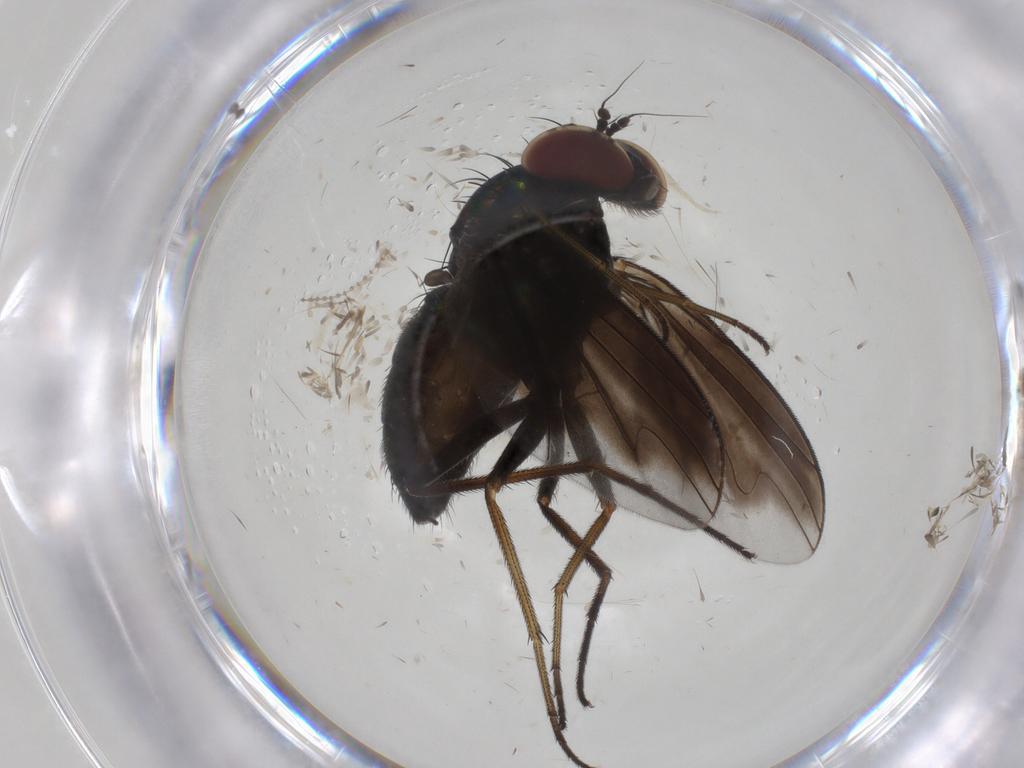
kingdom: Animalia
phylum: Arthropoda
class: Insecta
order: Diptera
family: Dolichopodidae
